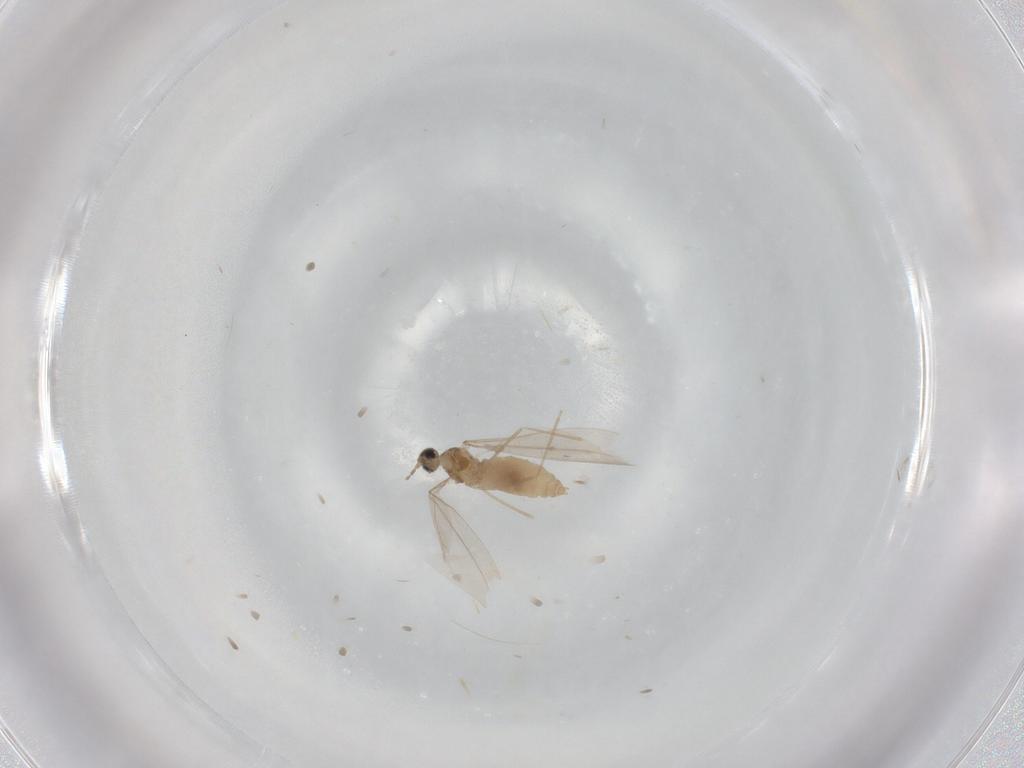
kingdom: Animalia
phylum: Arthropoda
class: Insecta
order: Diptera
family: Cecidomyiidae
